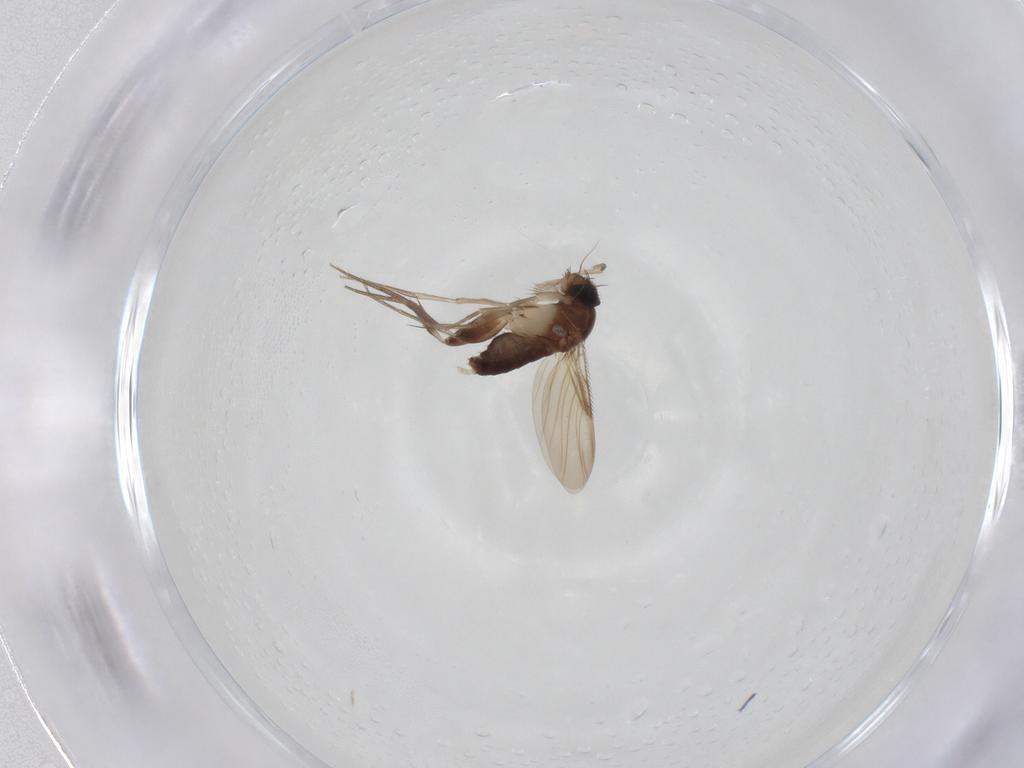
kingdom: Animalia
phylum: Arthropoda
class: Insecta
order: Diptera
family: Phoridae
